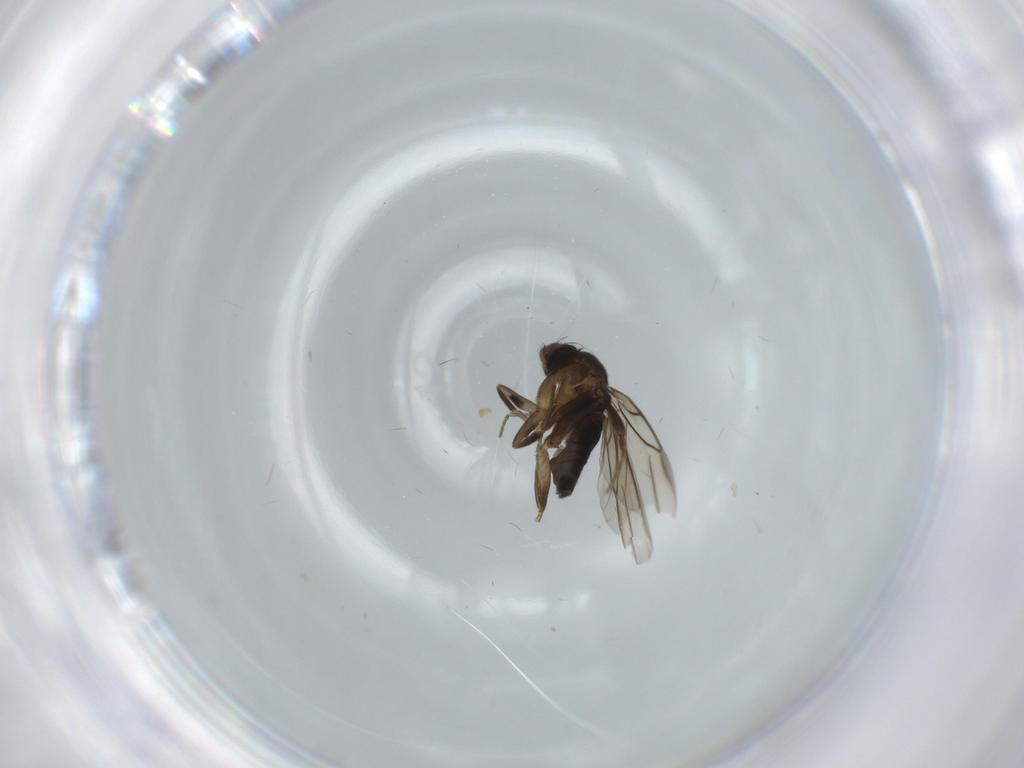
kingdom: Animalia
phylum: Arthropoda
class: Insecta
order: Diptera
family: Phoridae
